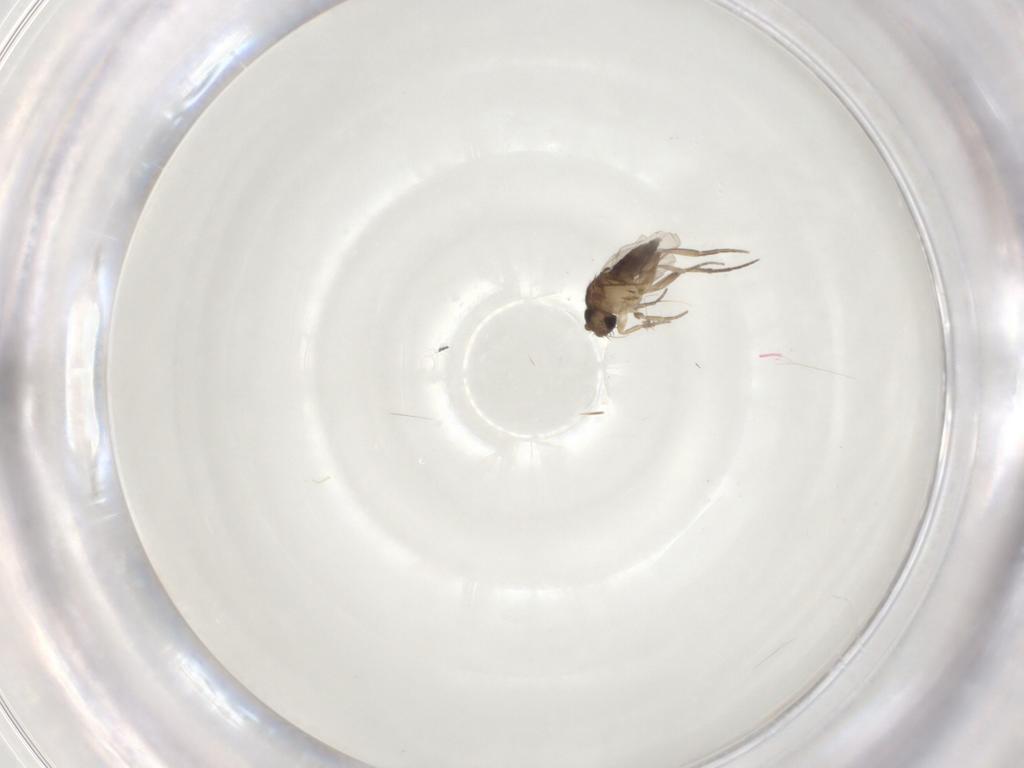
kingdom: Animalia
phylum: Arthropoda
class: Insecta
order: Diptera
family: Phoridae
